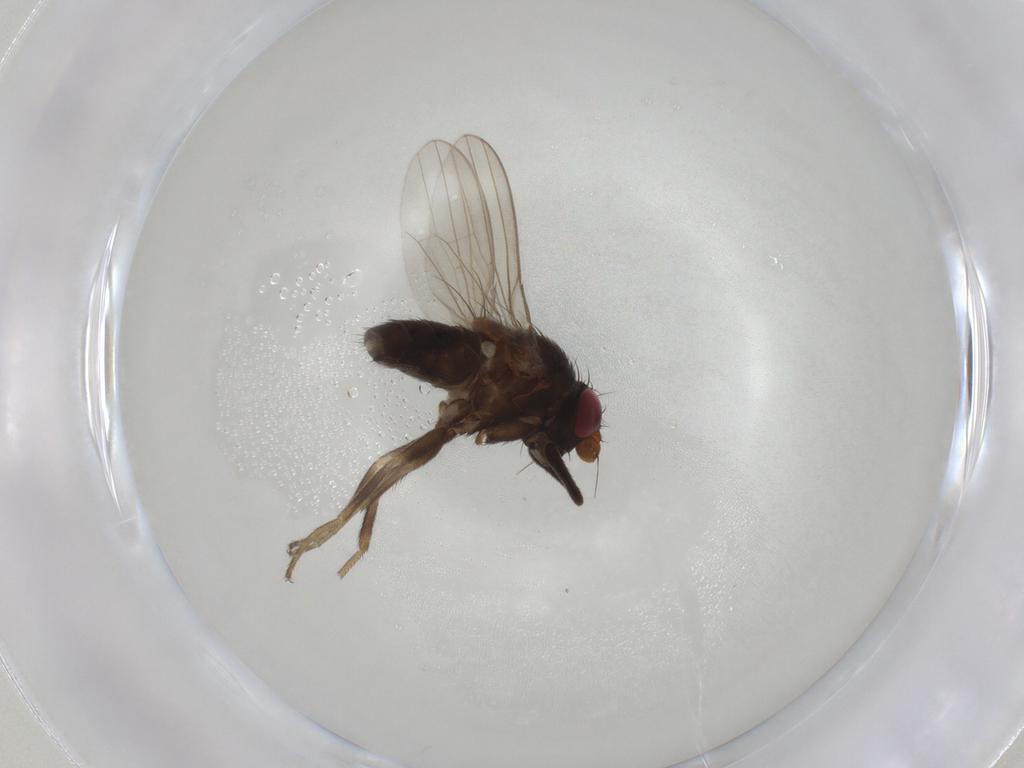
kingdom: Animalia
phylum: Arthropoda
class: Insecta
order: Diptera
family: Milichiidae
